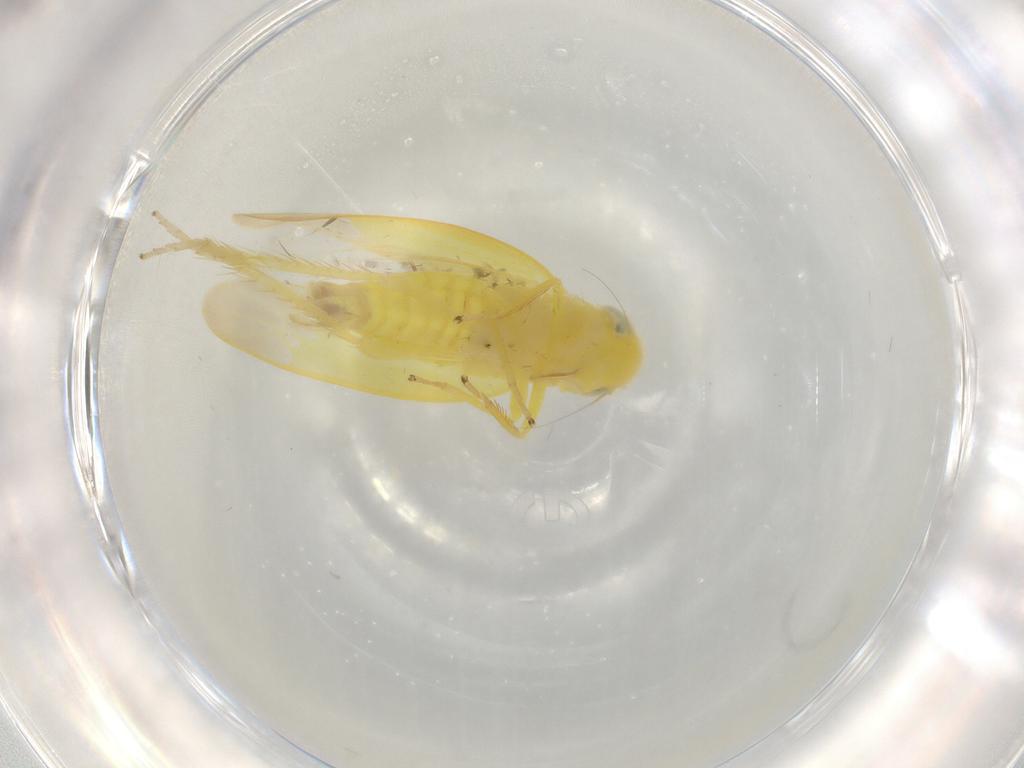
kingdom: Animalia
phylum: Arthropoda
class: Insecta
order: Hemiptera
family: Cicadellidae
